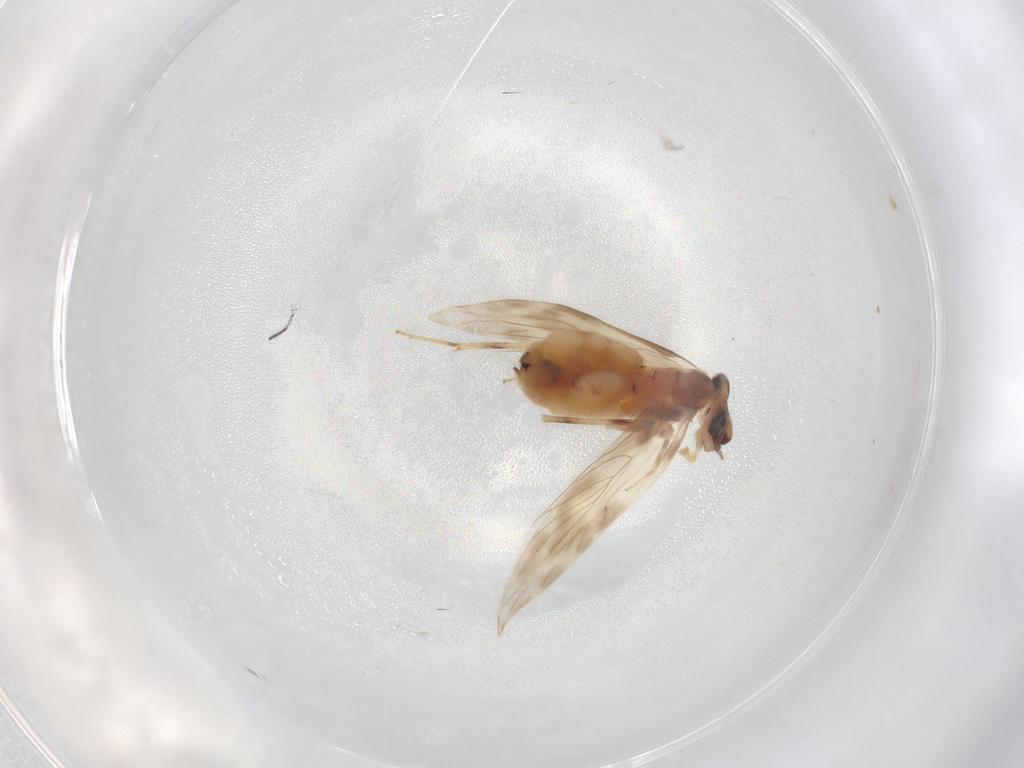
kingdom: Animalia
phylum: Arthropoda
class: Insecta
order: Psocodea
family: Lepidopsocidae
